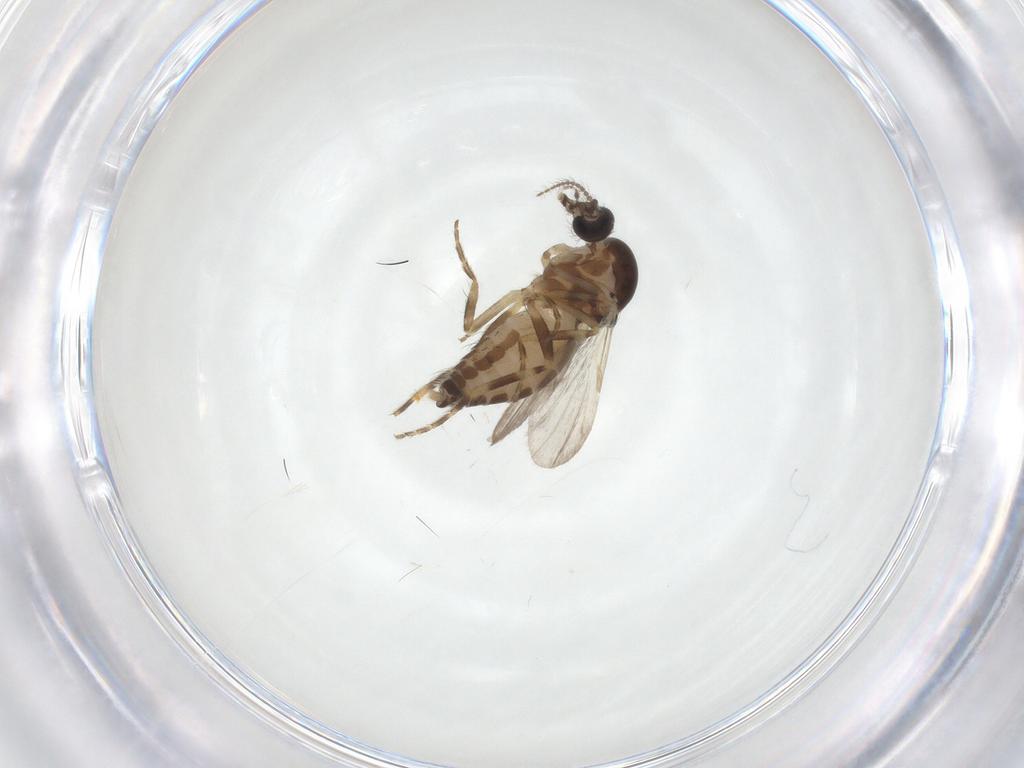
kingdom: Animalia
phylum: Arthropoda
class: Insecta
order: Diptera
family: Ceratopogonidae
